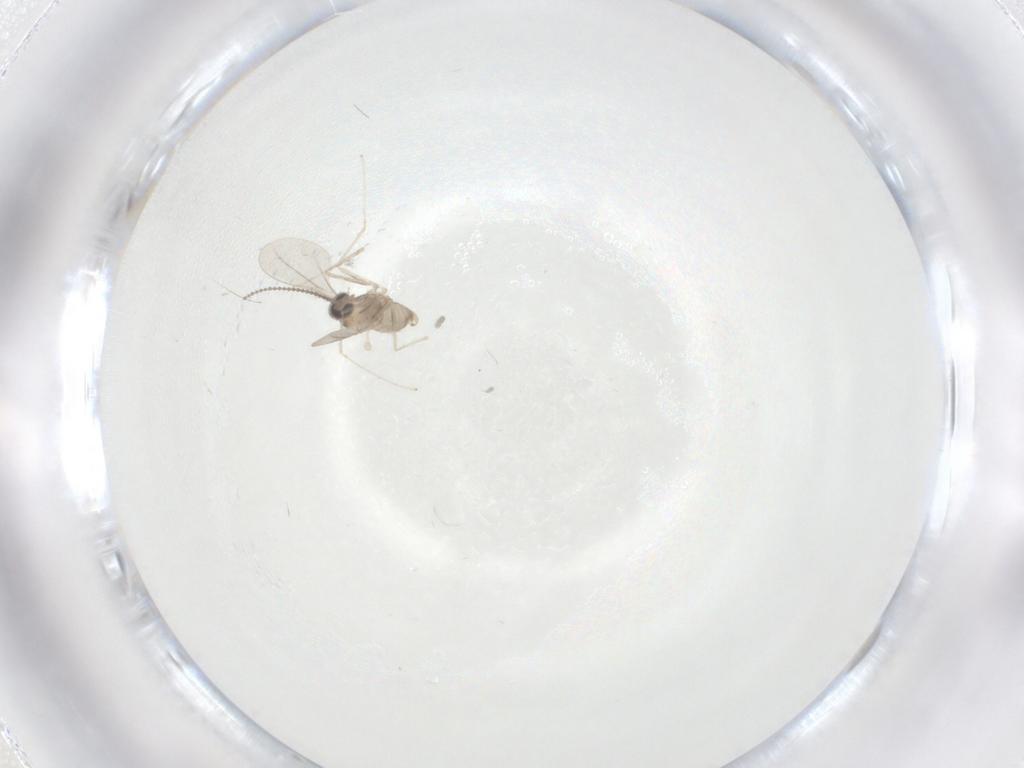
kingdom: Animalia
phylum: Arthropoda
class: Insecta
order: Diptera
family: Cecidomyiidae
